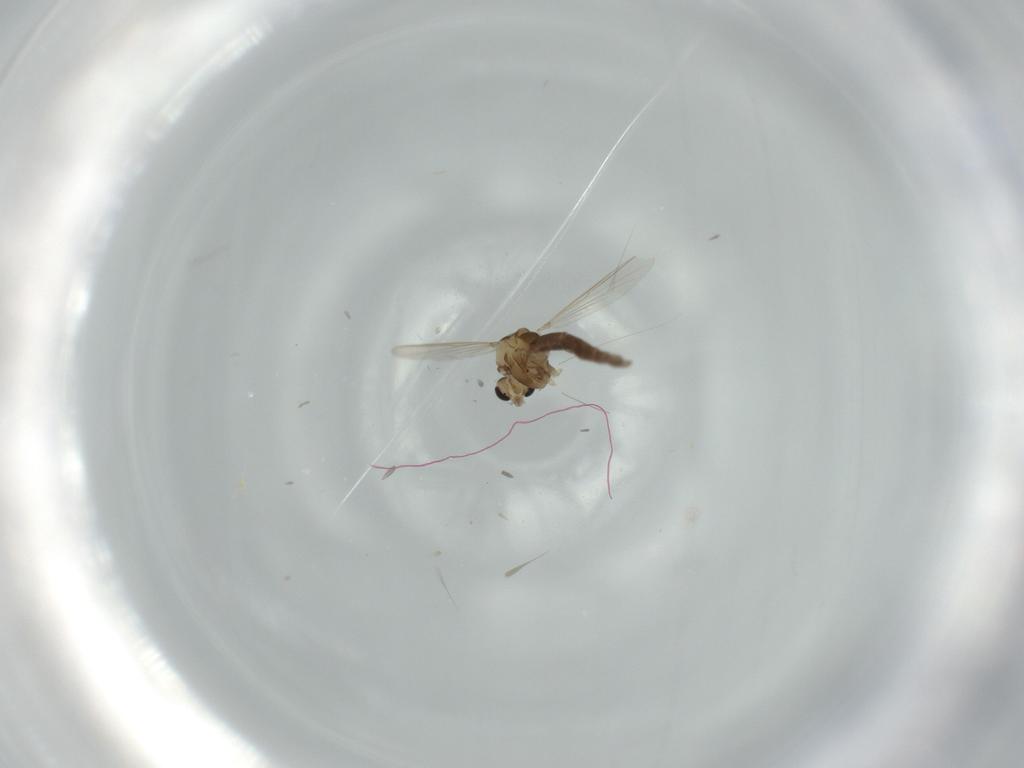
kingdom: Animalia
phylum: Arthropoda
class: Insecta
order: Diptera
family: Chironomidae
